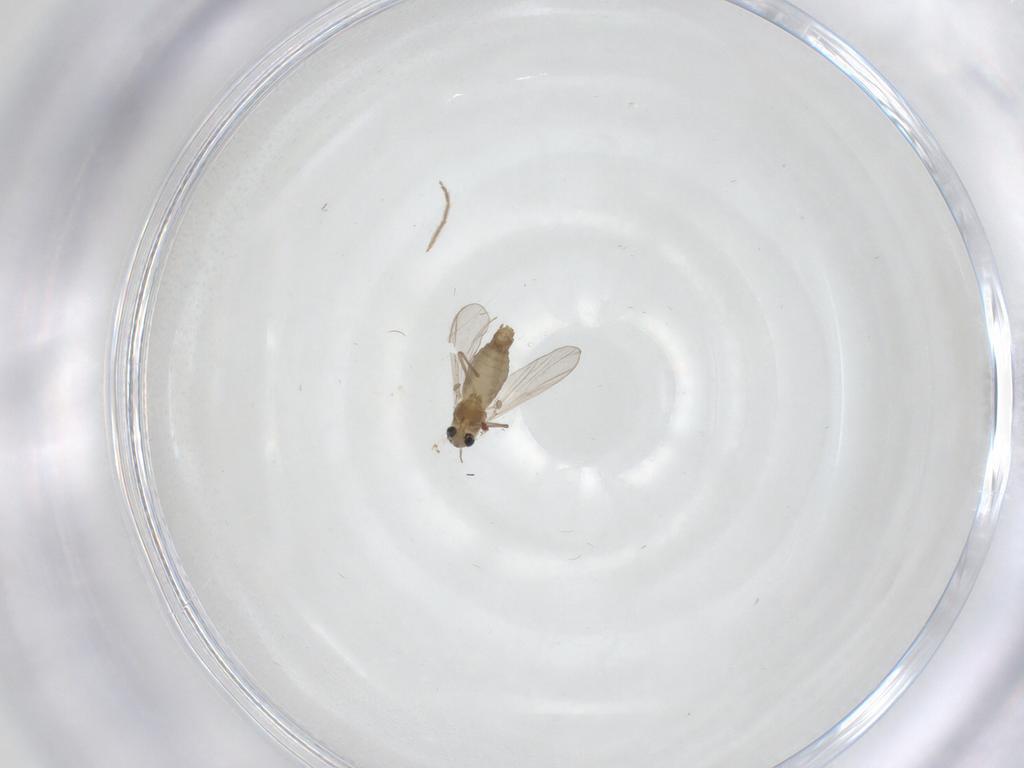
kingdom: Animalia
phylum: Arthropoda
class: Insecta
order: Diptera
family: Chironomidae
